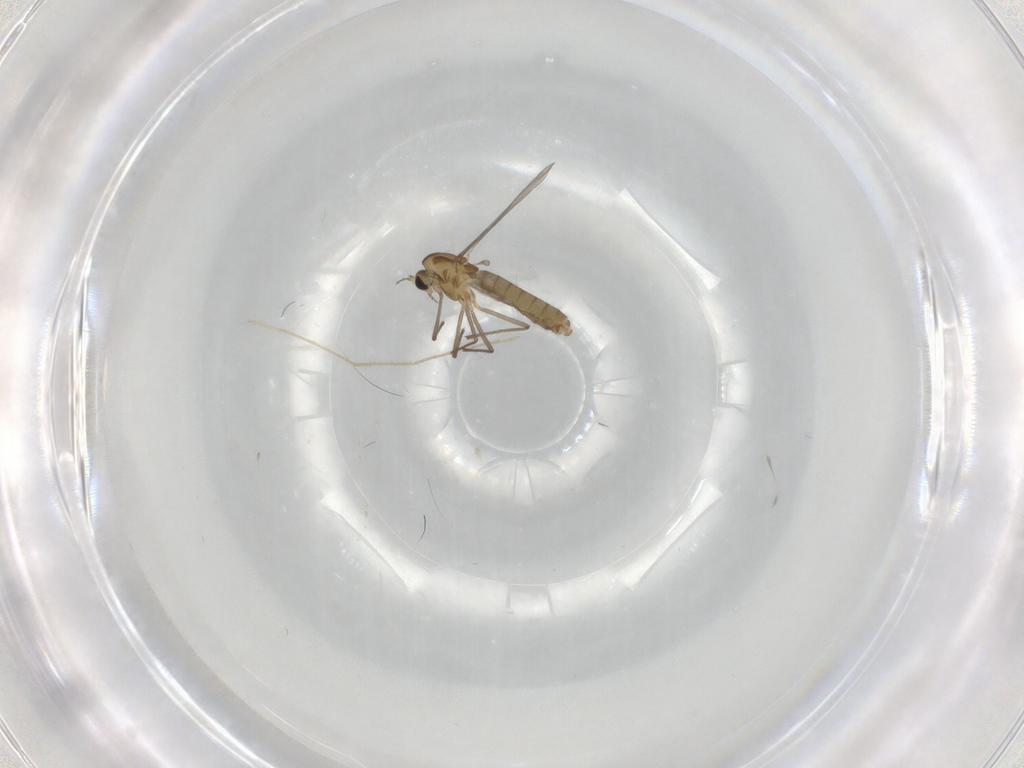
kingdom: Animalia
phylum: Arthropoda
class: Insecta
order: Diptera
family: Chironomidae
